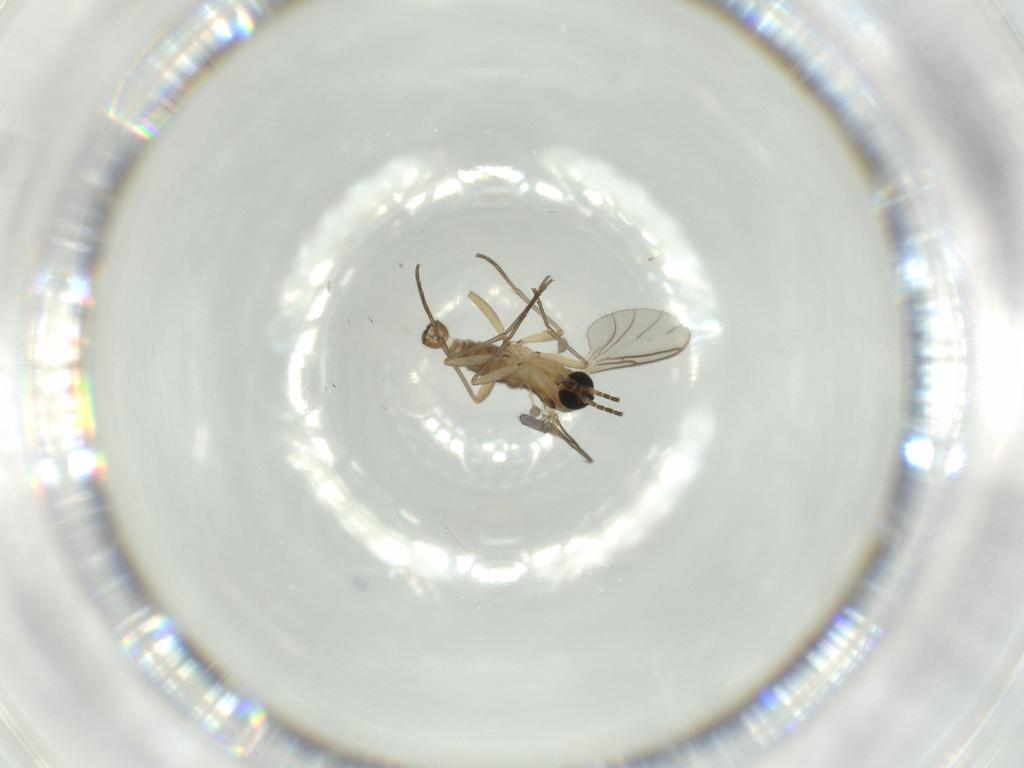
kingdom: Animalia
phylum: Arthropoda
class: Insecta
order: Diptera
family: Sciaridae
